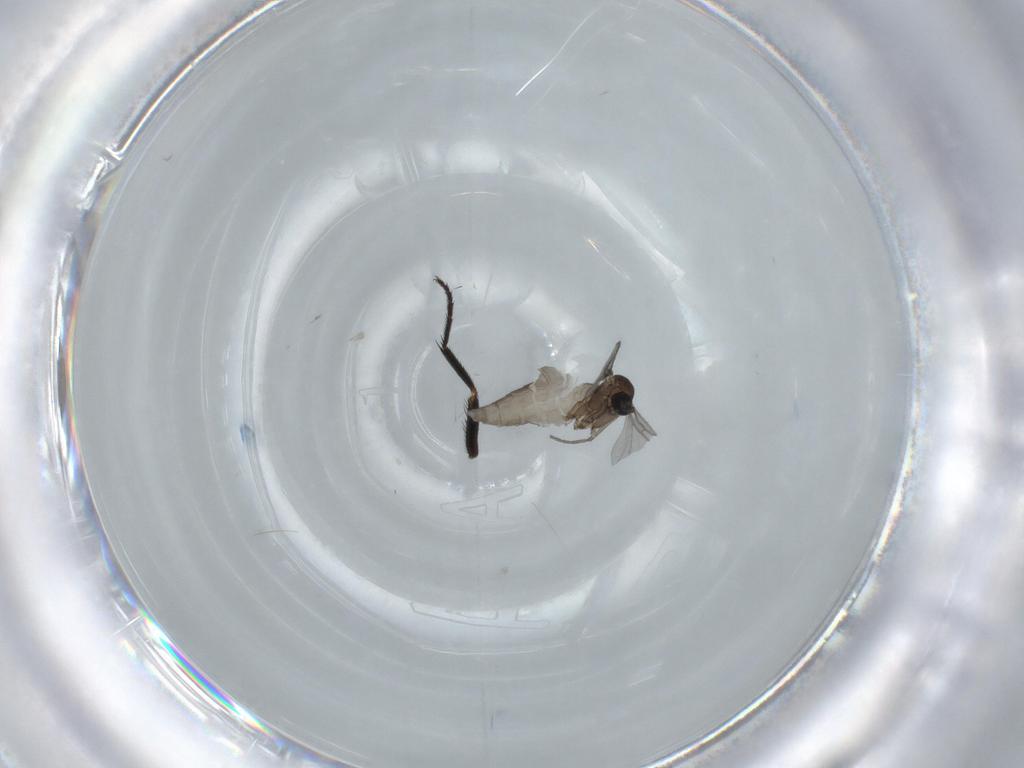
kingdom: Animalia
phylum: Arthropoda
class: Insecta
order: Diptera
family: Sciaridae
